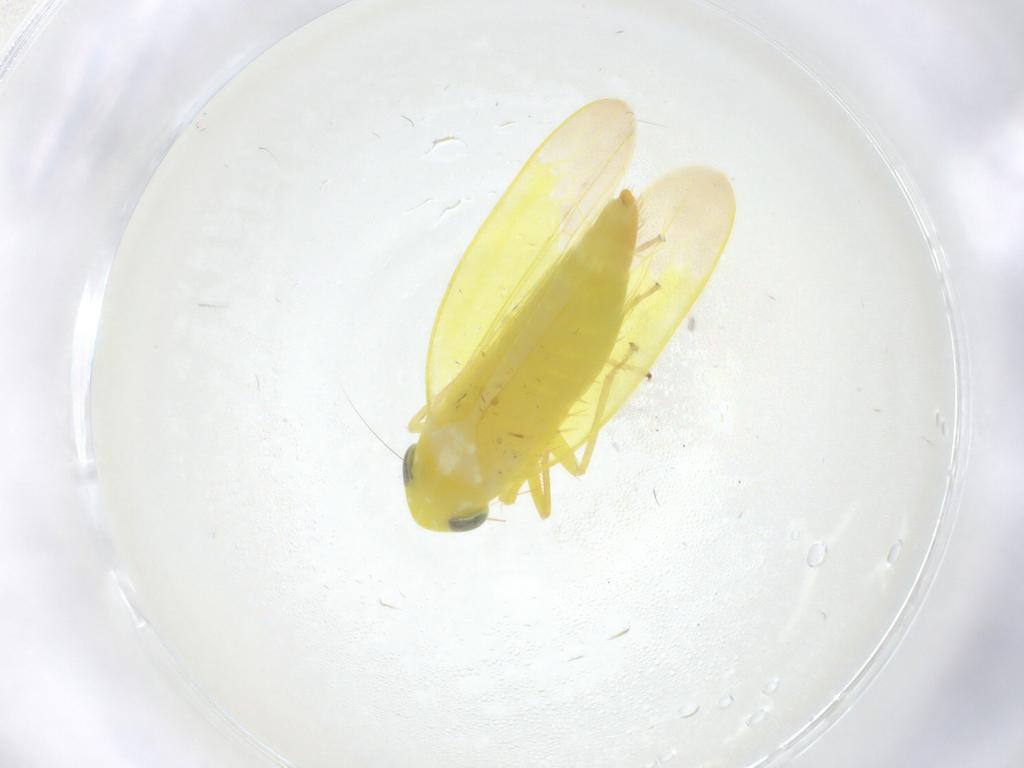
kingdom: Animalia
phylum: Arthropoda
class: Insecta
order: Hemiptera
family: Cicadellidae
